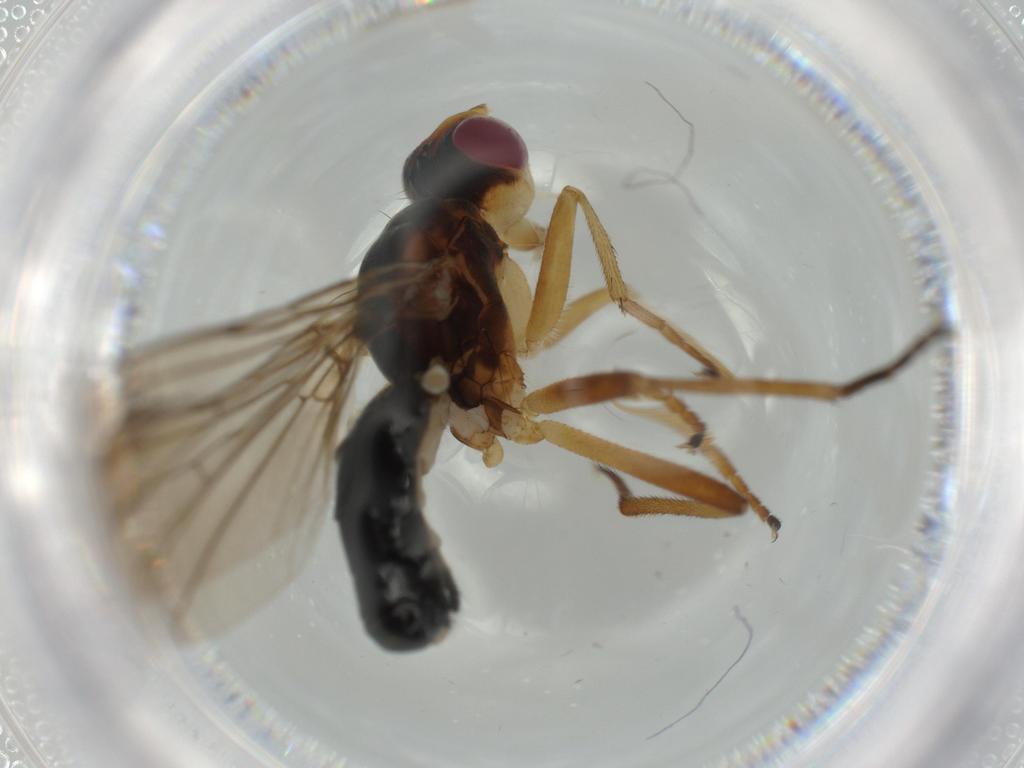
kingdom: Animalia
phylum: Arthropoda
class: Insecta
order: Diptera
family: Scathophagidae
